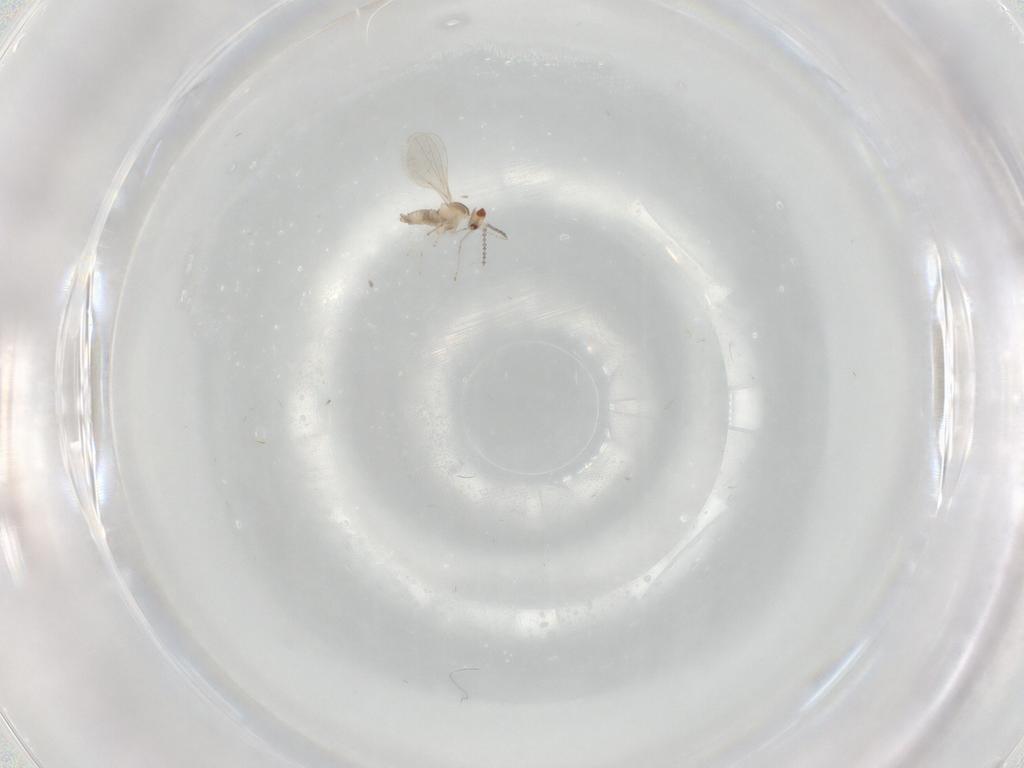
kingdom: Animalia
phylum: Arthropoda
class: Insecta
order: Diptera
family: Cecidomyiidae
